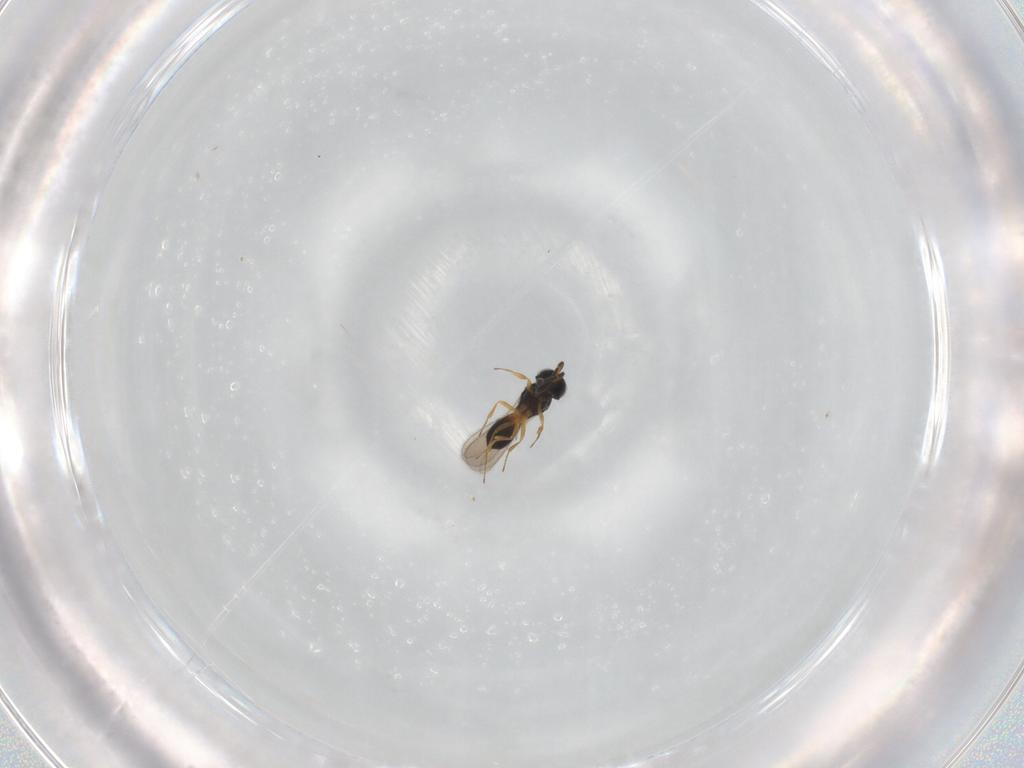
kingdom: Animalia
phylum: Arthropoda
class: Insecta
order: Hymenoptera
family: Scelionidae
